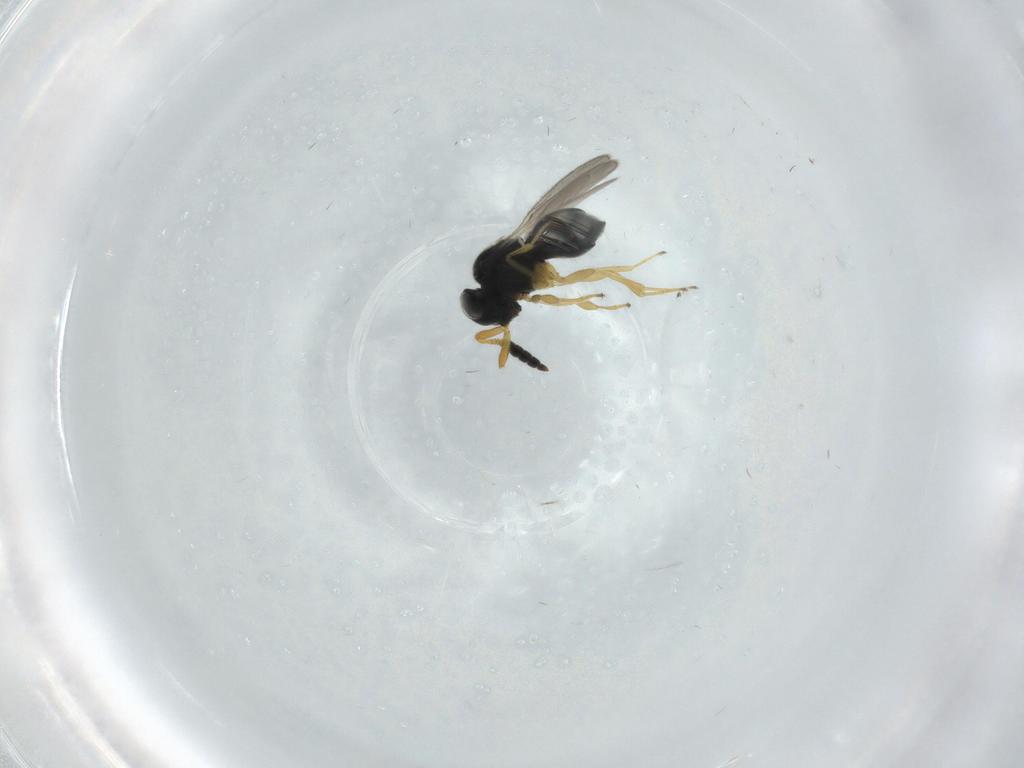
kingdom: Animalia
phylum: Arthropoda
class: Insecta
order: Hymenoptera
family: Scelionidae
